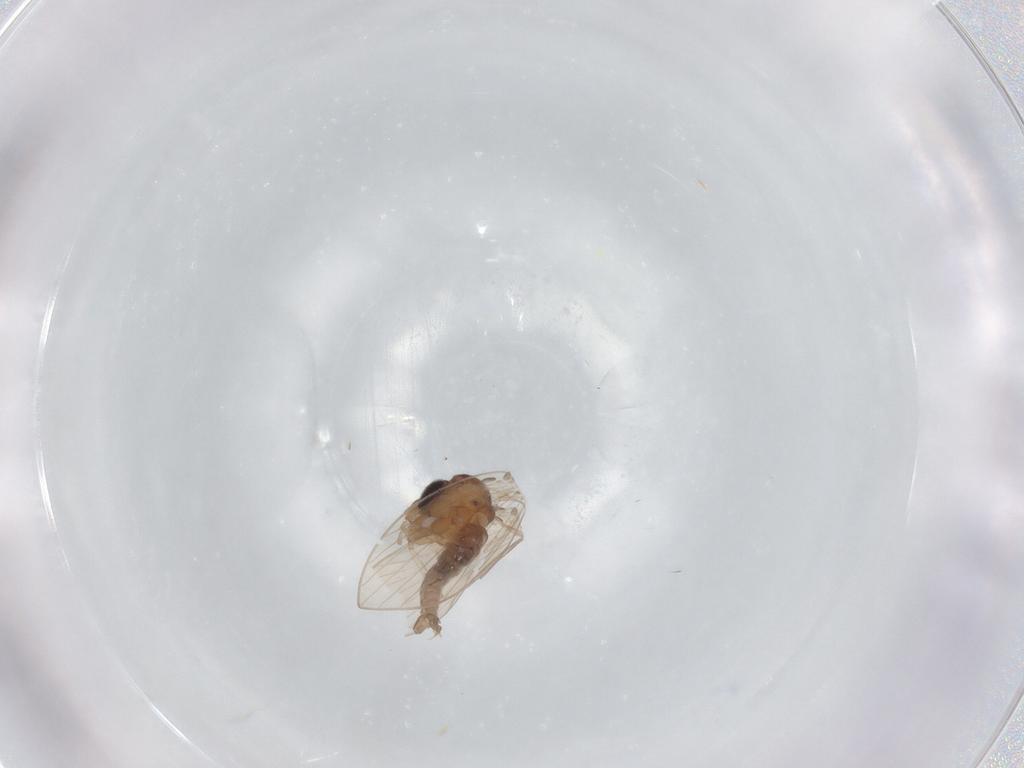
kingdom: Animalia
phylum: Arthropoda
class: Insecta
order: Diptera
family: Psychodidae
